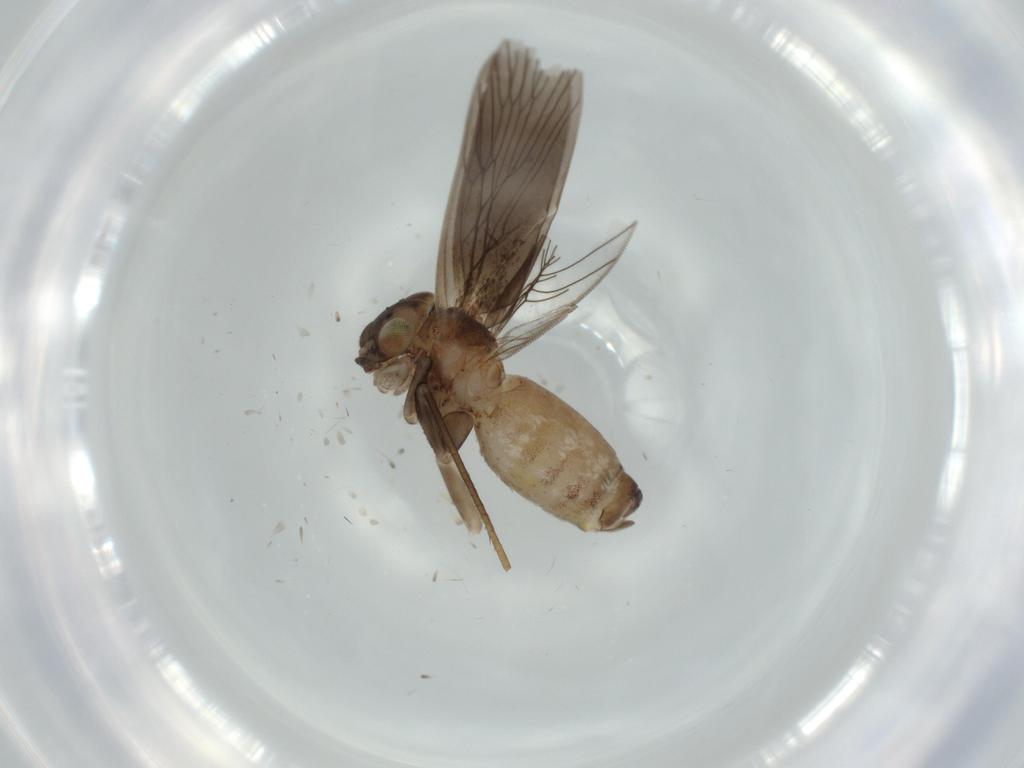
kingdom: Animalia
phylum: Arthropoda
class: Insecta
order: Psocodea
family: Lepidopsocidae
